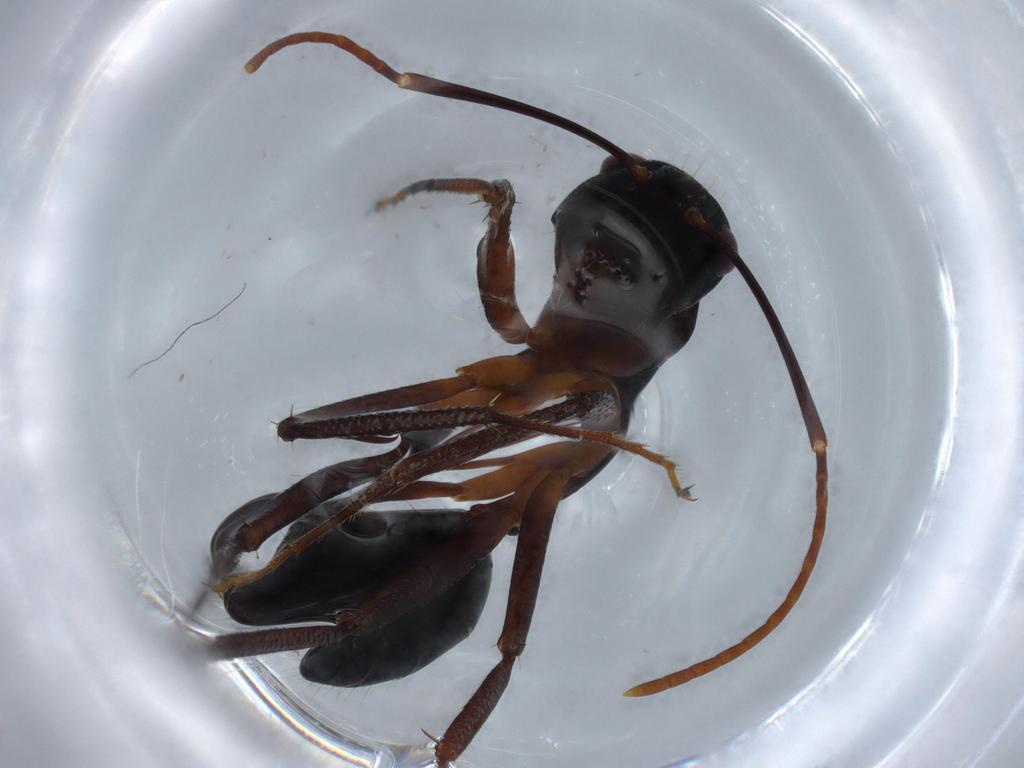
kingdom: Animalia
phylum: Arthropoda
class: Insecta
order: Hymenoptera
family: Formicidae
